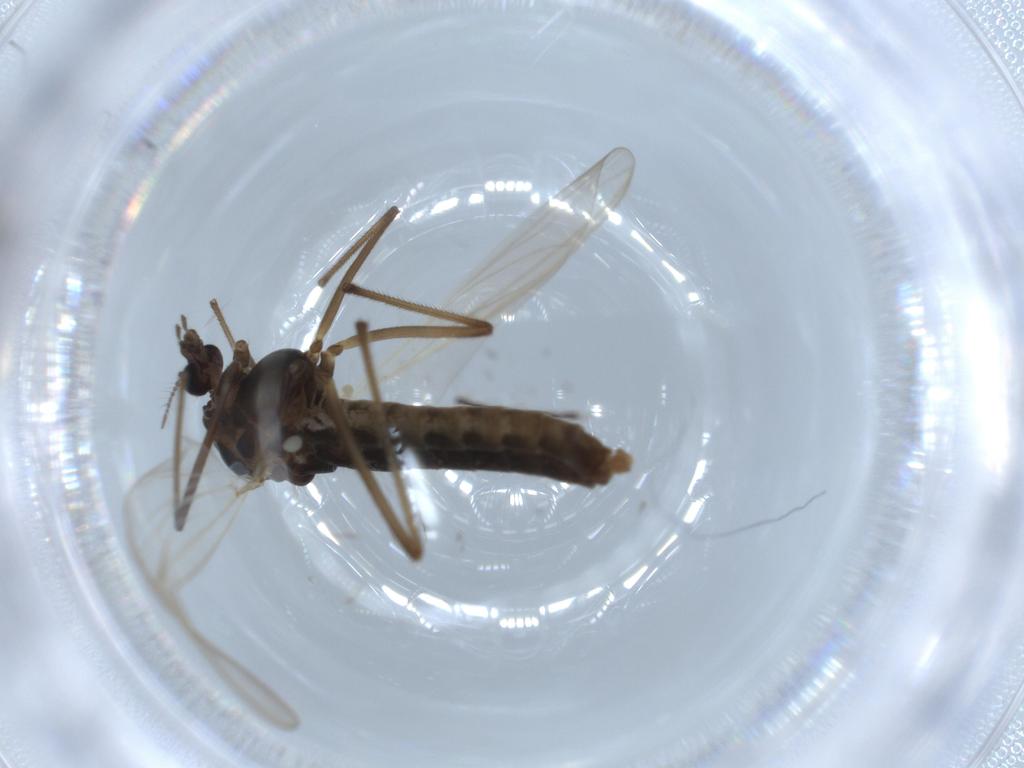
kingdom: Animalia
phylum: Arthropoda
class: Insecta
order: Diptera
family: Chironomidae
